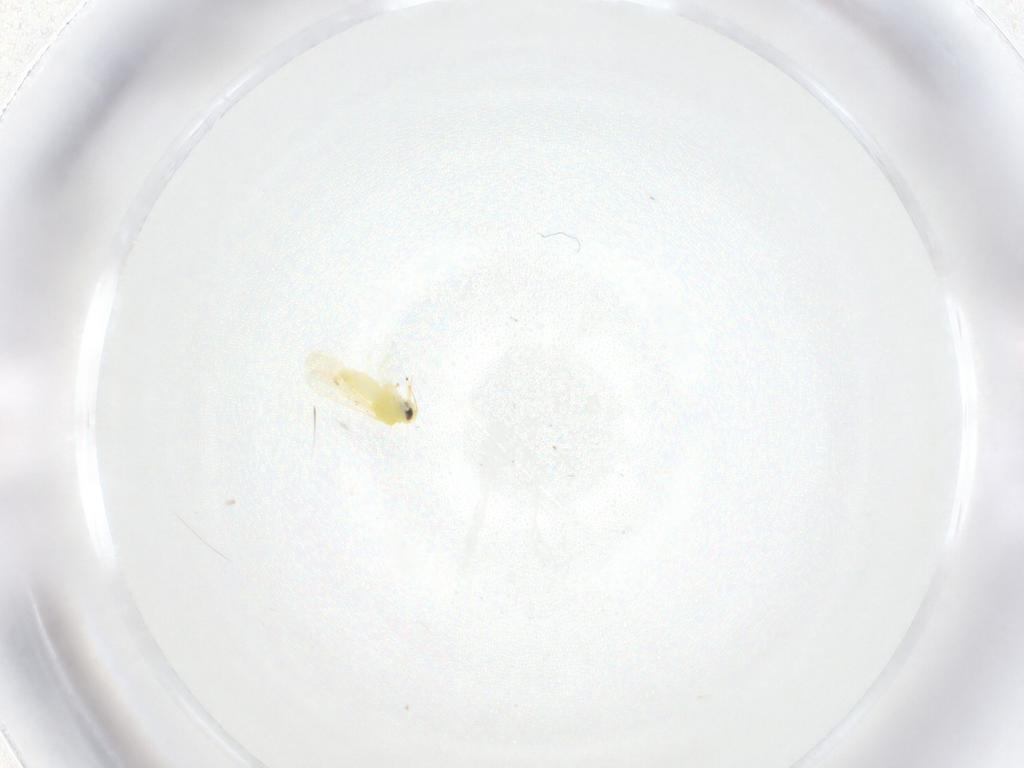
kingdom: Animalia
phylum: Arthropoda
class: Insecta
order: Hemiptera
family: Aleyrodidae
